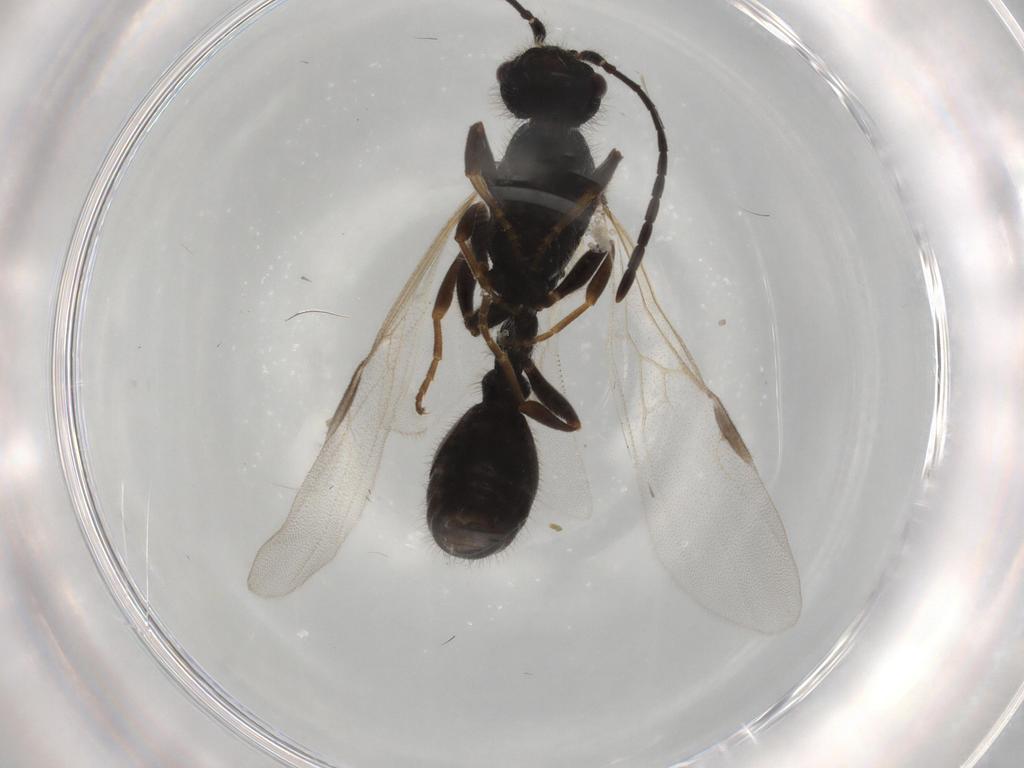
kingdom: Animalia
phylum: Arthropoda
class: Insecta
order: Hymenoptera
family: Formicidae
